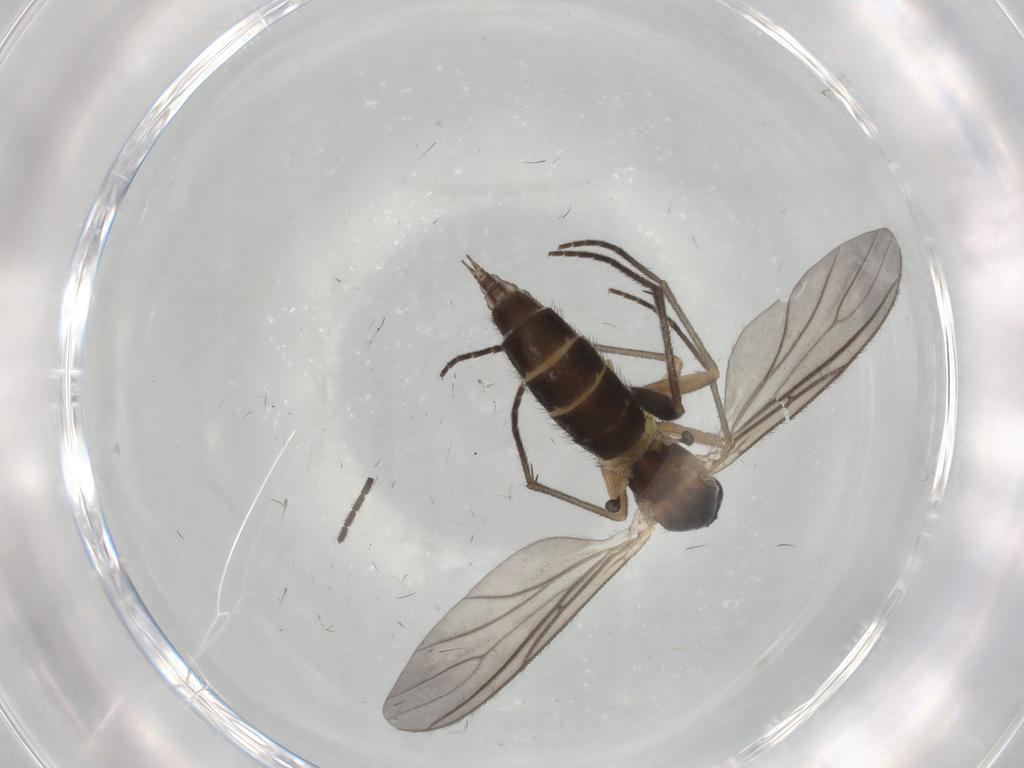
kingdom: Animalia
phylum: Arthropoda
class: Insecta
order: Diptera
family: Sciaridae
